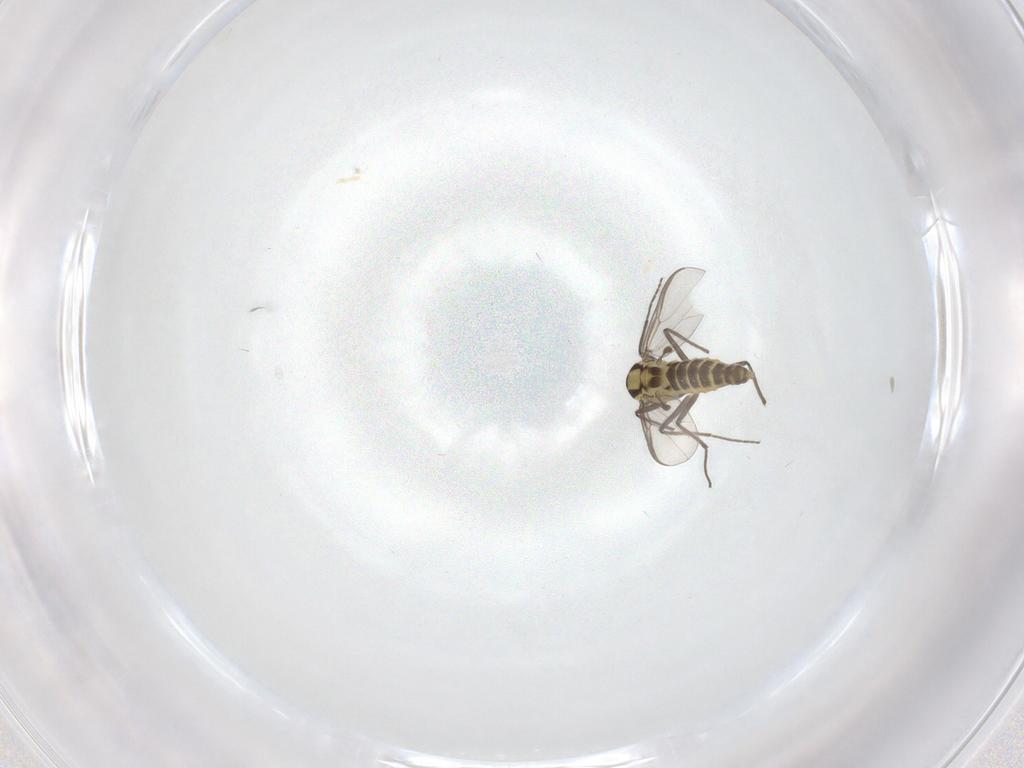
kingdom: Animalia
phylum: Arthropoda
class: Insecta
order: Diptera
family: Chironomidae
